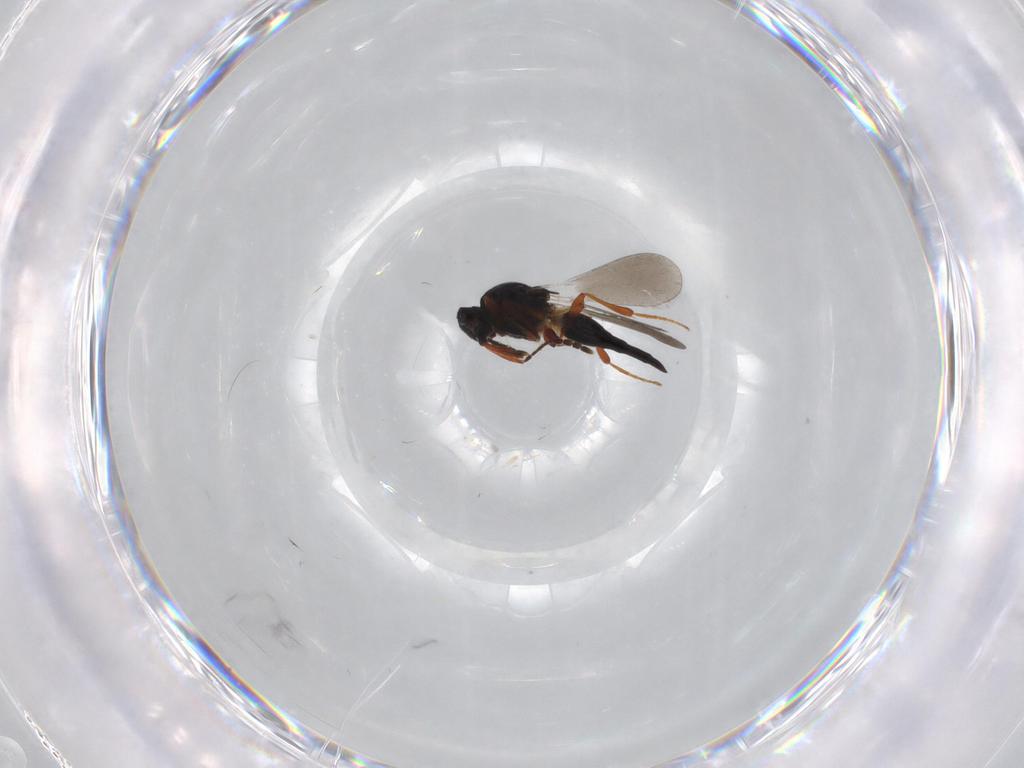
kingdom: Animalia
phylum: Arthropoda
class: Insecta
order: Hymenoptera
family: Platygastridae
